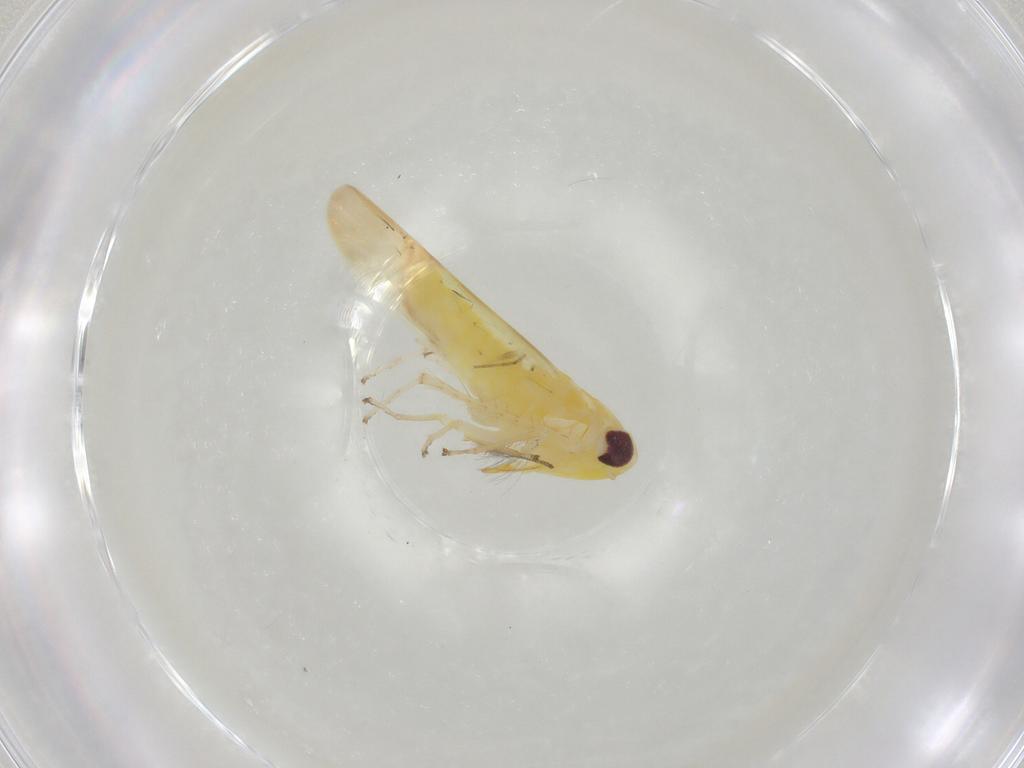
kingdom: Animalia
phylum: Arthropoda
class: Insecta
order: Hemiptera
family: Cicadellidae
